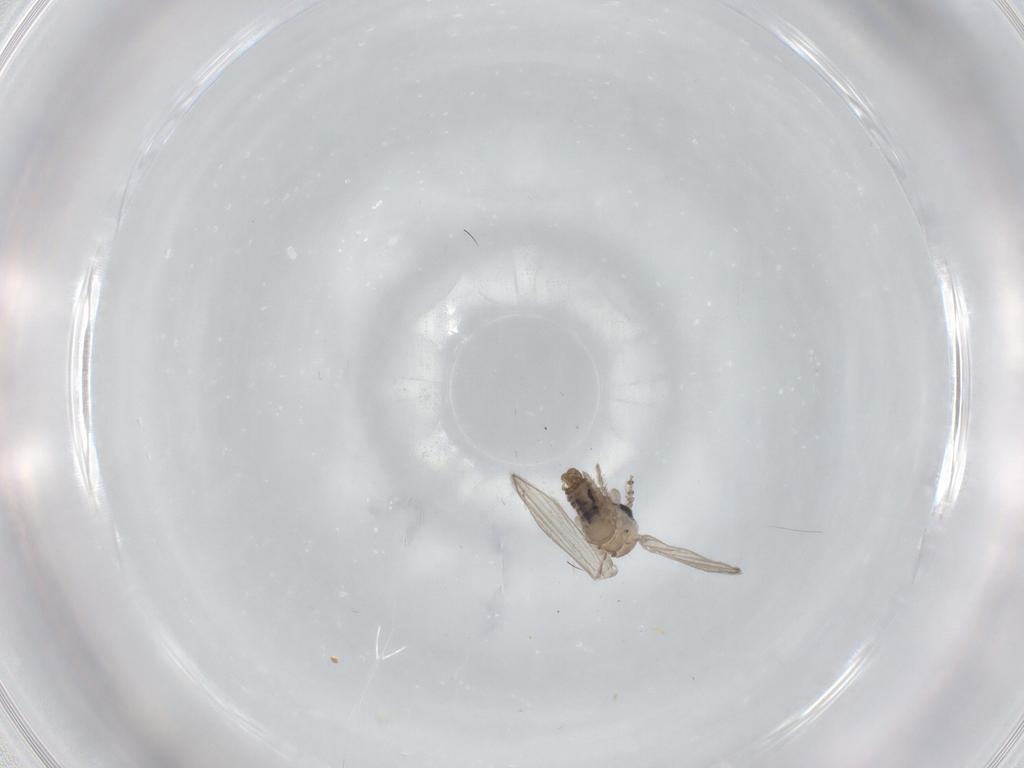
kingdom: Animalia
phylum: Arthropoda
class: Insecta
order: Diptera
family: Psychodidae
